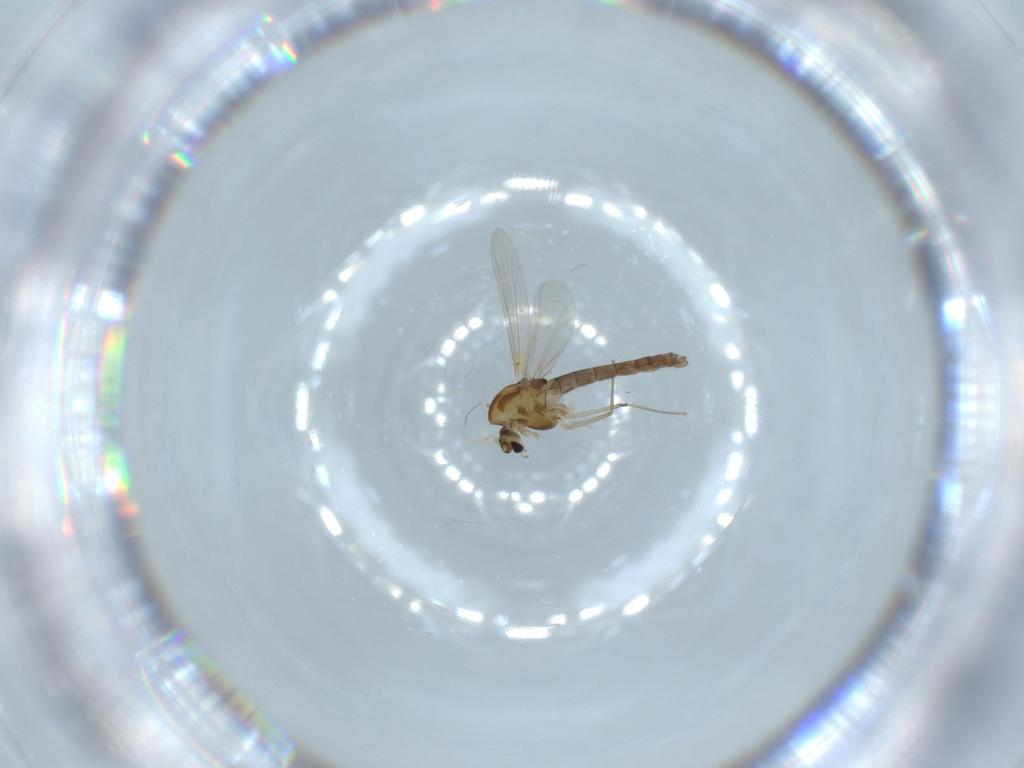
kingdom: Animalia
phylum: Arthropoda
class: Insecta
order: Diptera
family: Chironomidae
